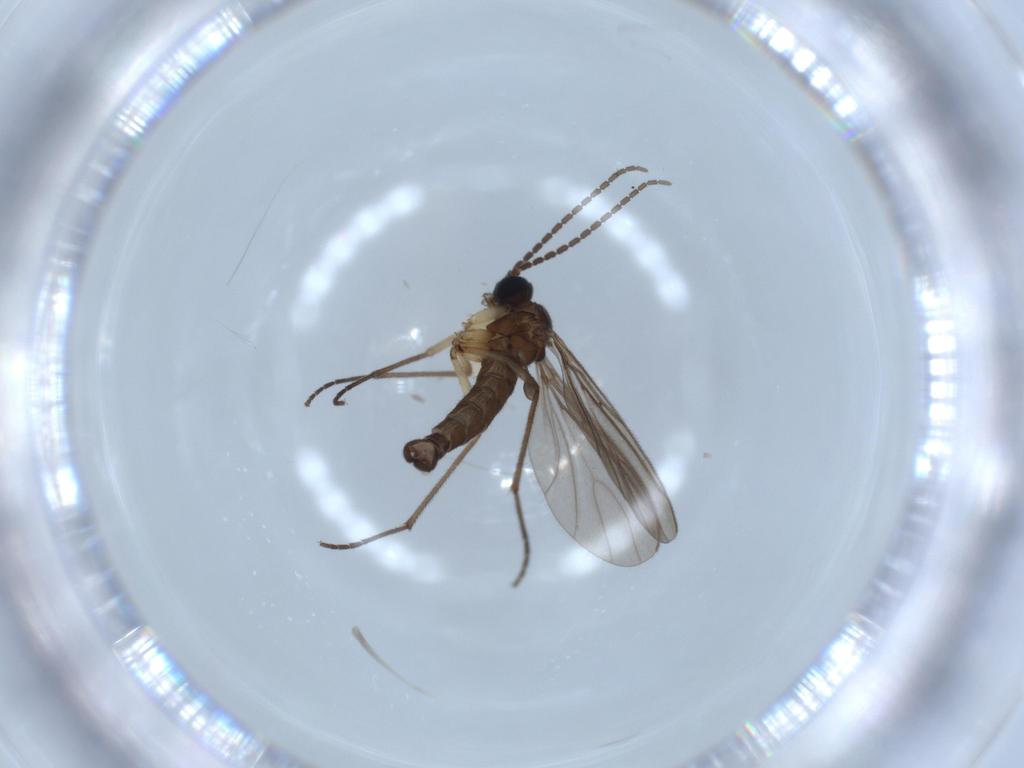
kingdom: Animalia
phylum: Arthropoda
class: Insecta
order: Diptera
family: Sciaridae
